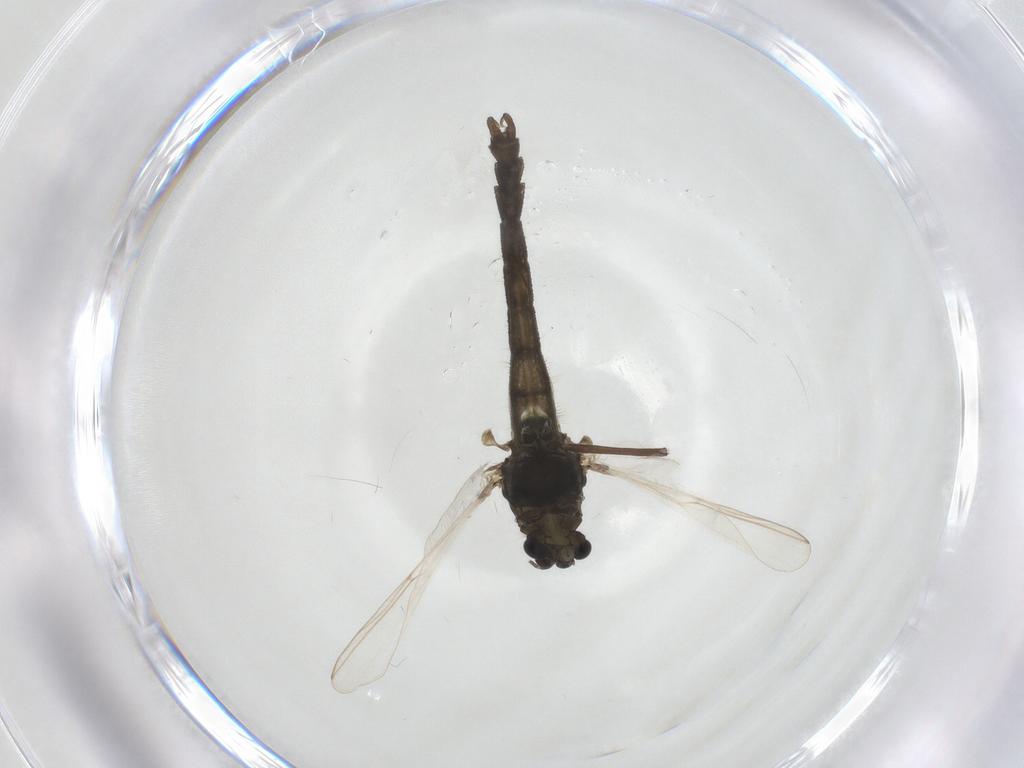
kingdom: Animalia
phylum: Arthropoda
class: Insecta
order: Diptera
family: Chironomidae
